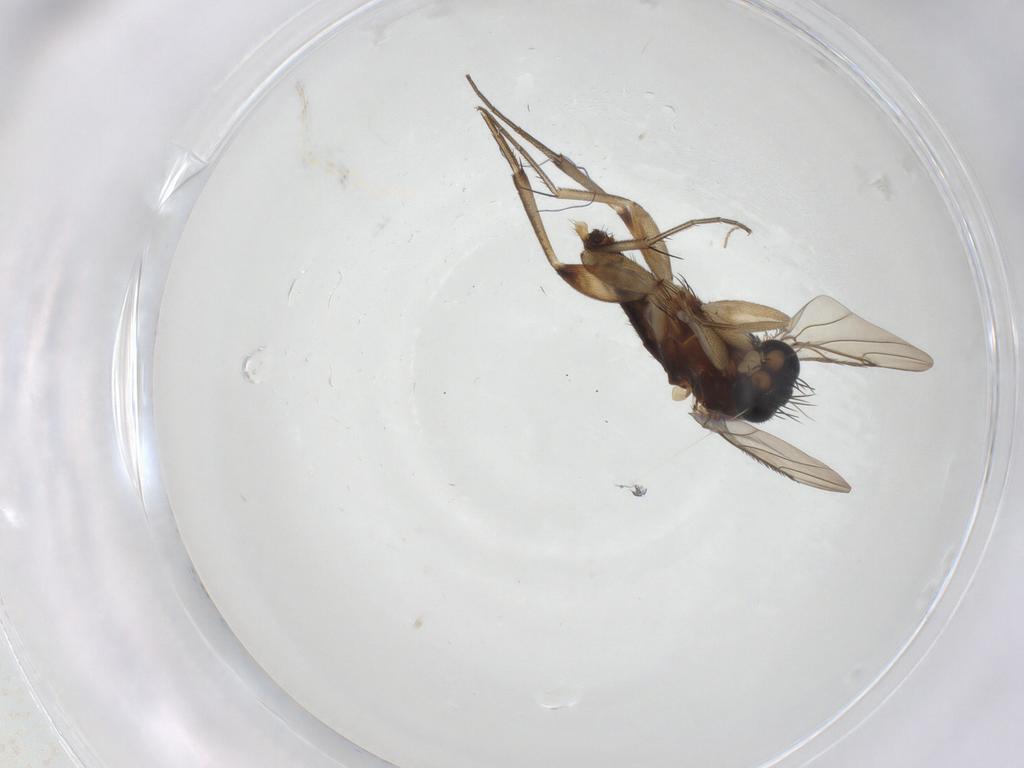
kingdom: Animalia
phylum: Arthropoda
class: Insecta
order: Diptera
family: Phoridae
